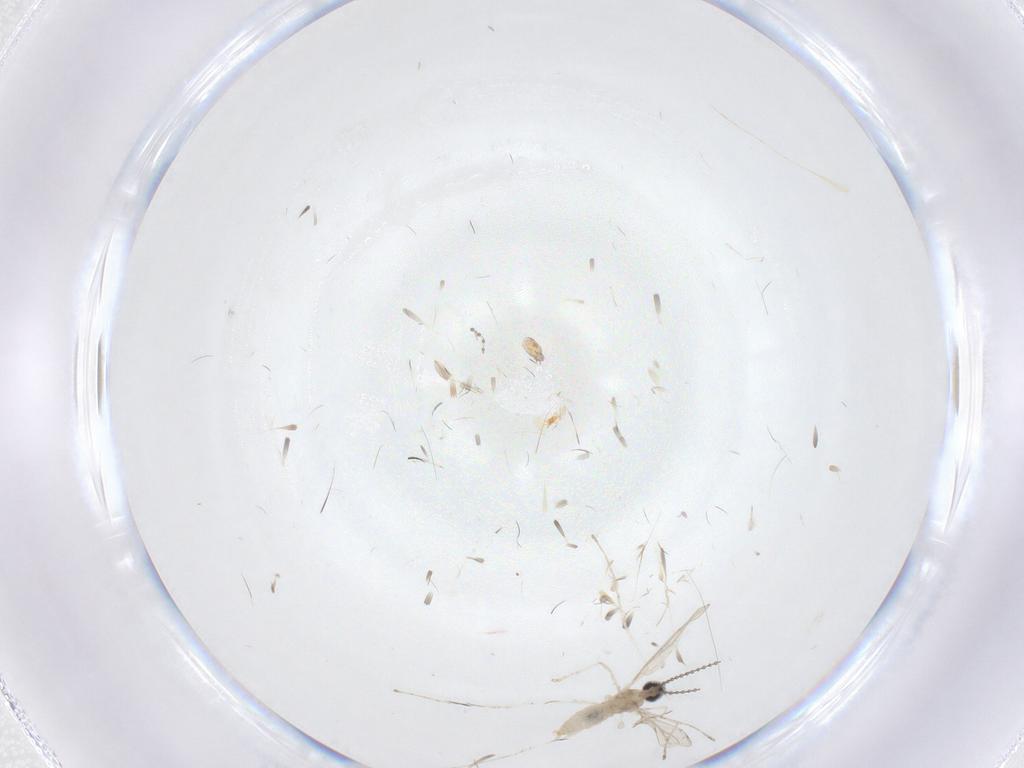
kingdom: Animalia
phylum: Arthropoda
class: Insecta
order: Diptera
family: Cecidomyiidae
